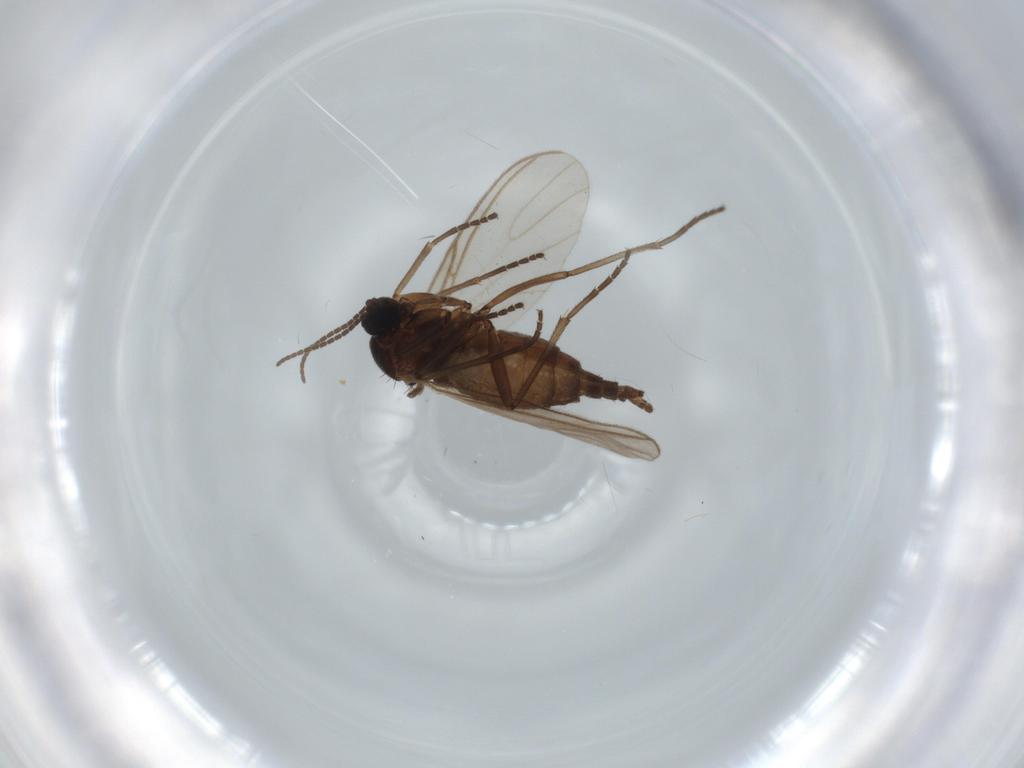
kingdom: Animalia
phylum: Arthropoda
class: Insecta
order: Diptera
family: Sciaridae
